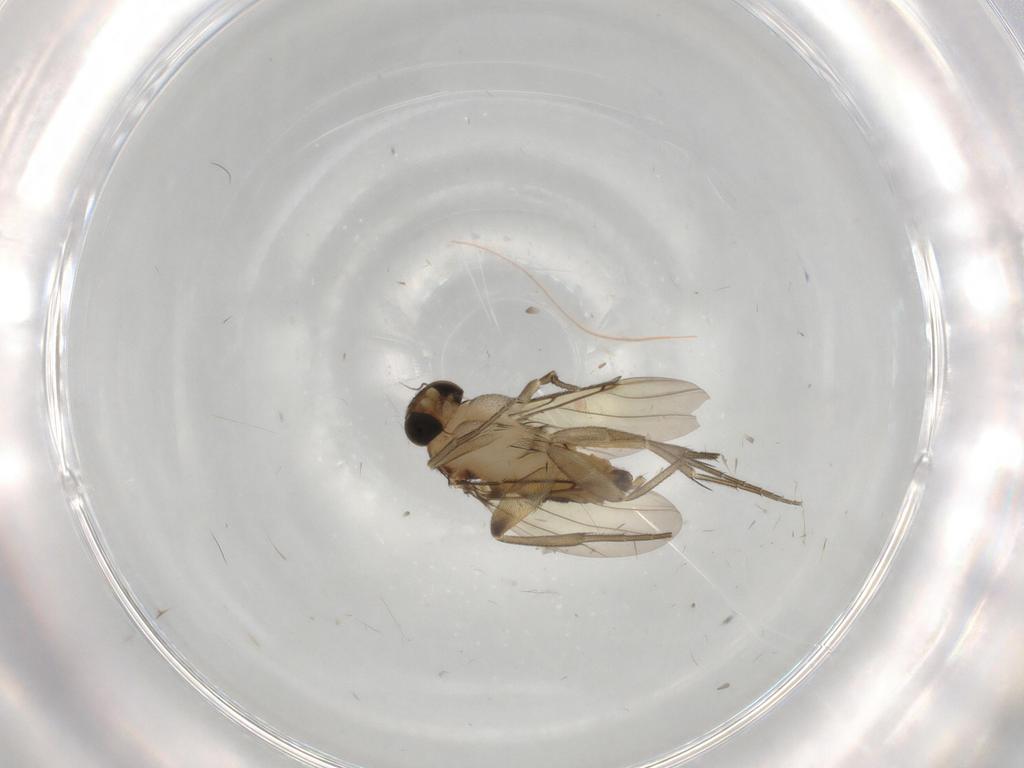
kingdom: Animalia
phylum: Arthropoda
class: Insecta
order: Diptera
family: Phoridae
